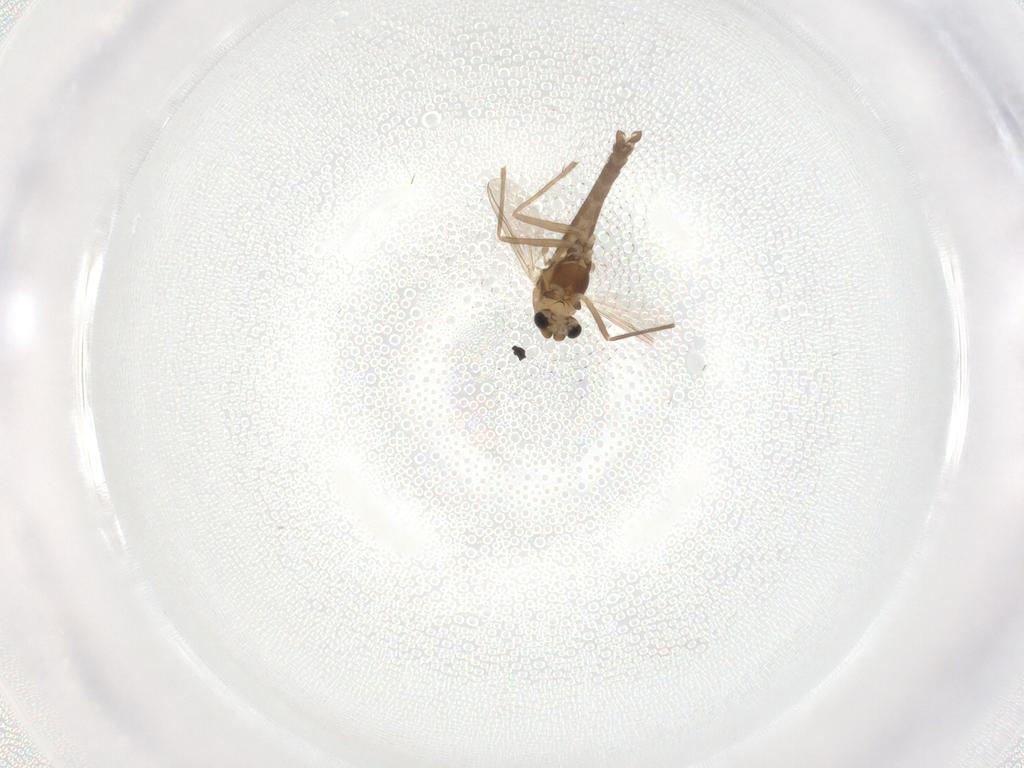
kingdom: Animalia
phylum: Arthropoda
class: Insecta
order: Diptera
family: Chironomidae
